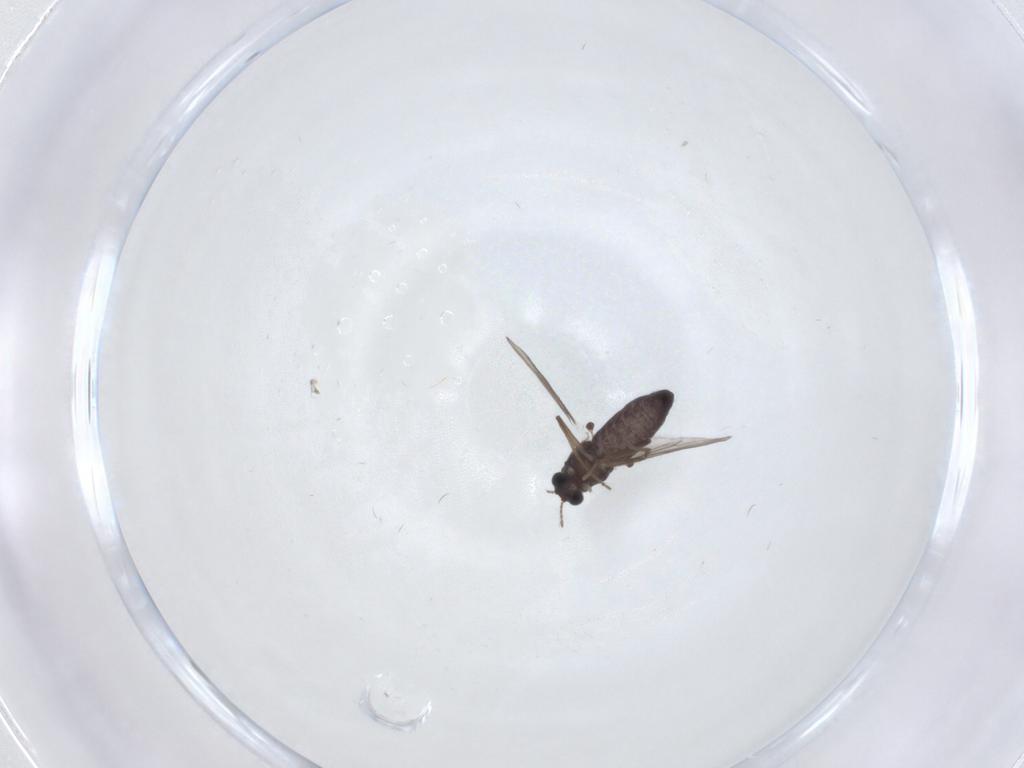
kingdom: Animalia
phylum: Arthropoda
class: Insecta
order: Diptera
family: Chironomidae
